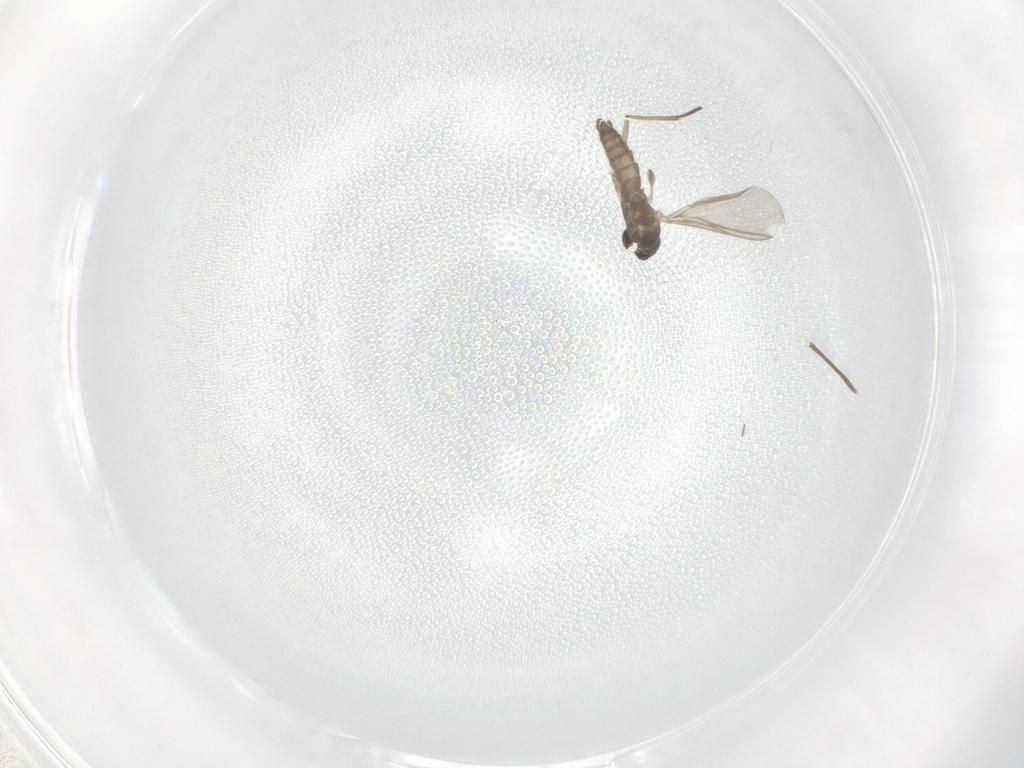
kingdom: Animalia
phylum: Arthropoda
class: Insecta
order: Diptera
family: Chironomidae
